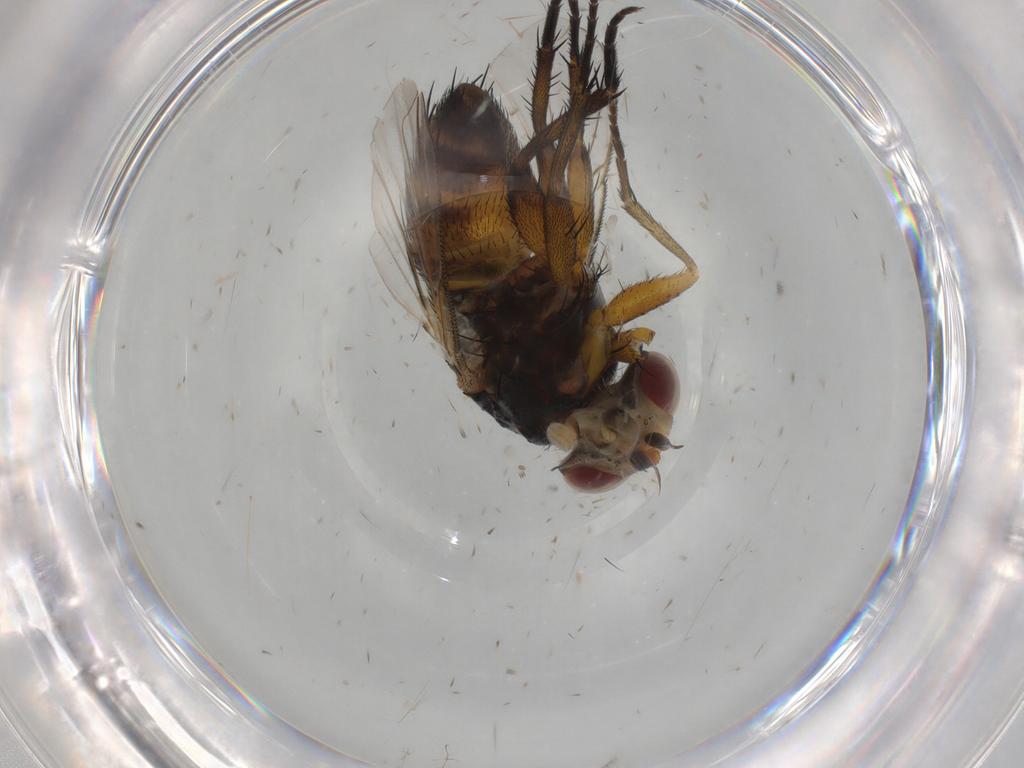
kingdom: Animalia
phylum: Arthropoda
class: Insecta
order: Diptera
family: Tachinidae
